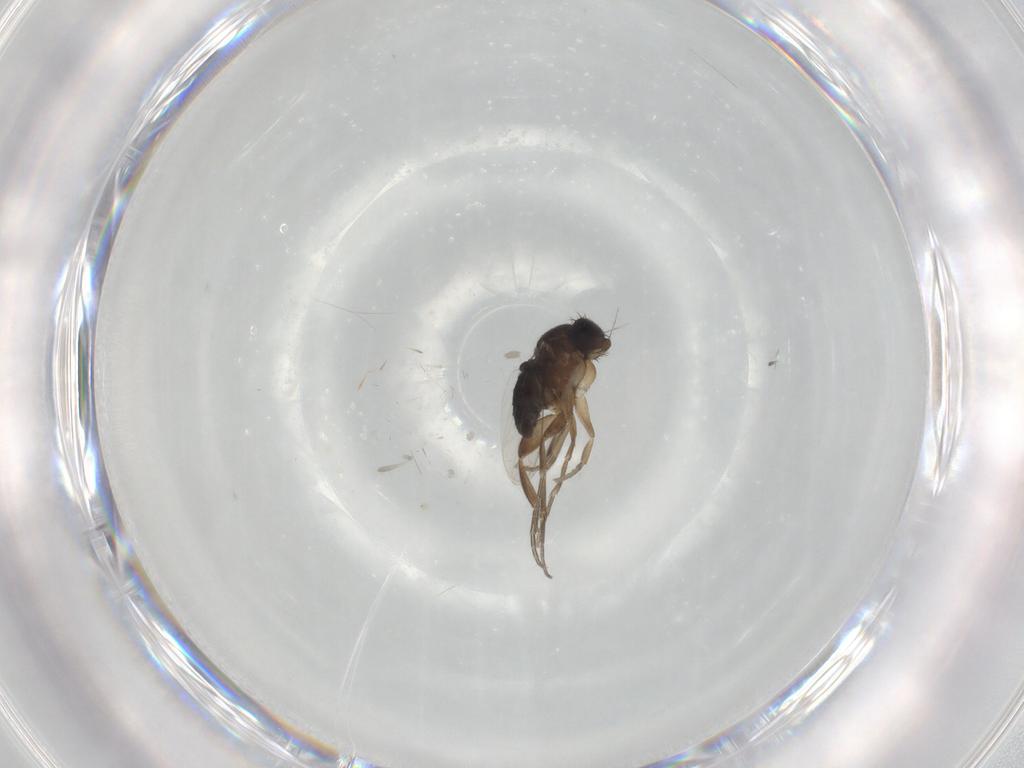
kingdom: Animalia
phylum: Arthropoda
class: Insecta
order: Diptera
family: Phoridae
